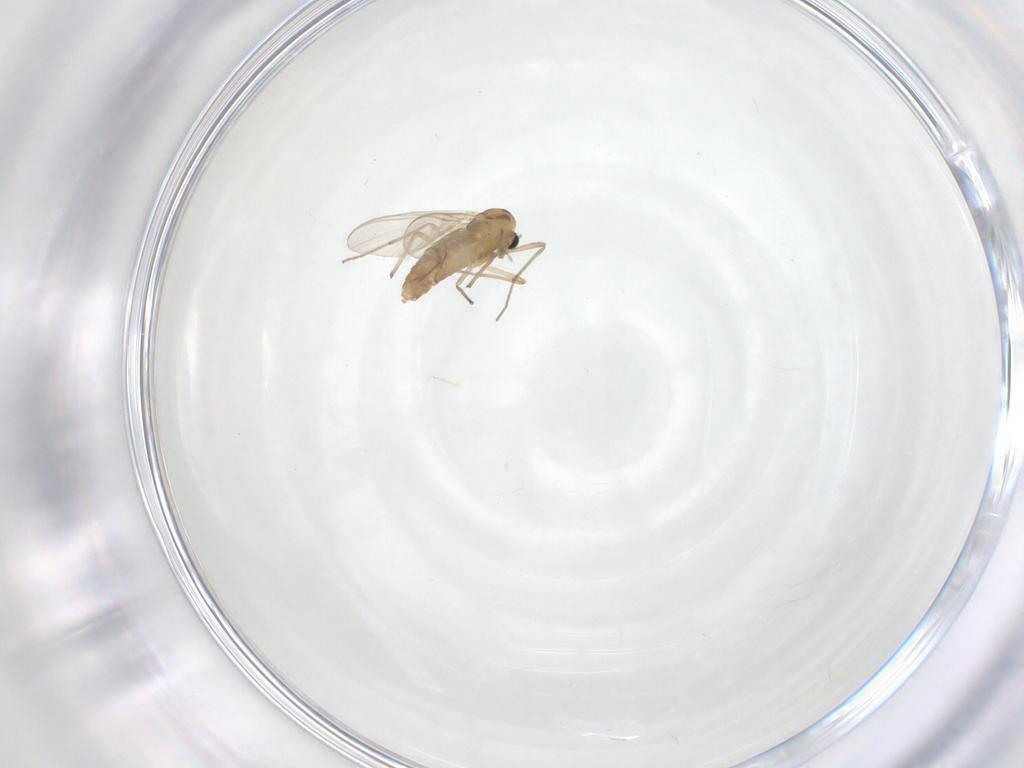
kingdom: Animalia
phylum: Arthropoda
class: Insecta
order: Diptera
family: Chironomidae
